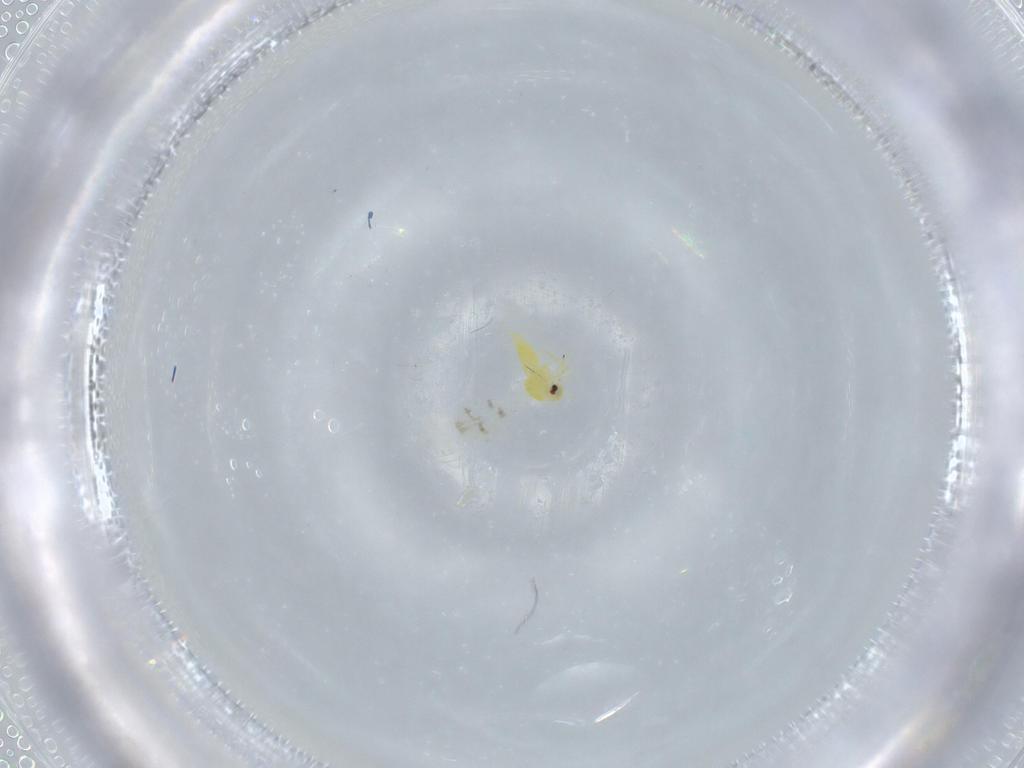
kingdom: Animalia
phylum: Arthropoda
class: Insecta
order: Hemiptera
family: Aleyrodidae
